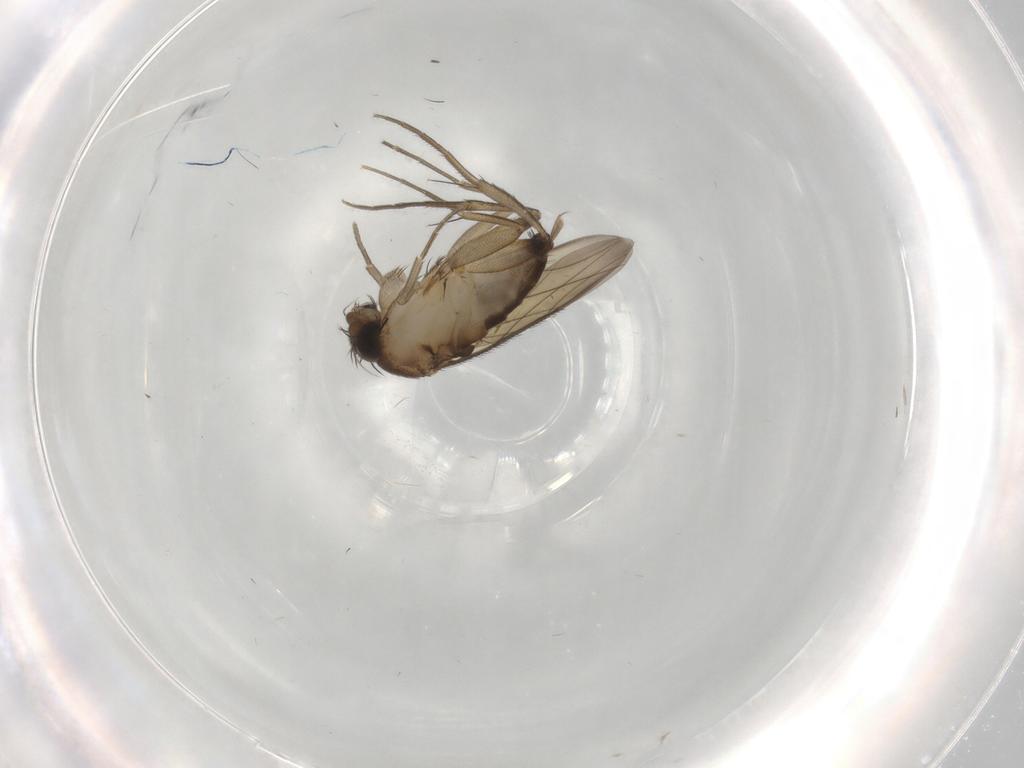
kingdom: Animalia
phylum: Arthropoda
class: Insecta
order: Diptera
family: Phoridae
